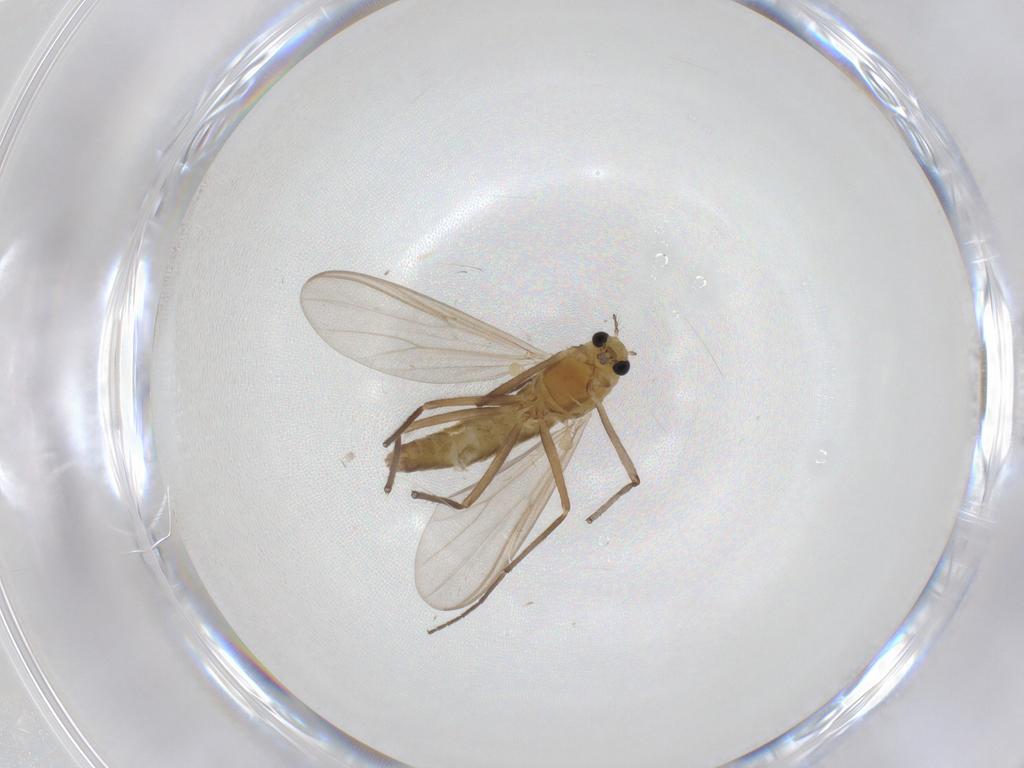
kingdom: Animalia
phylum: Arthropoda
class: Insecta
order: Diptera
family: Chironomidae
